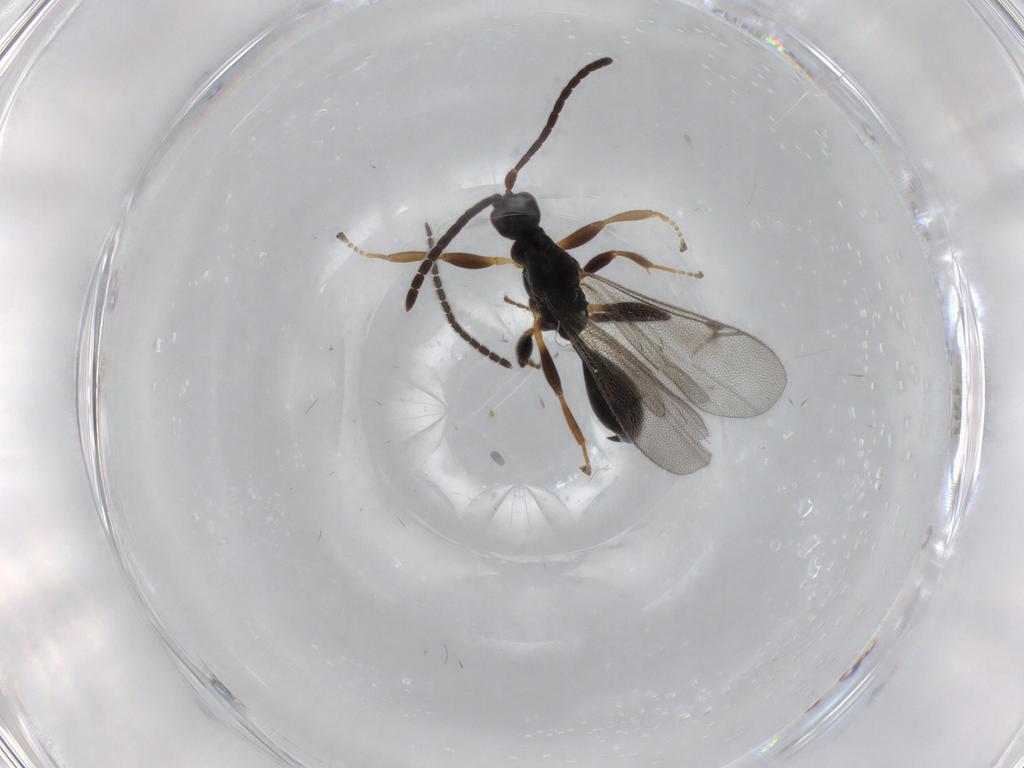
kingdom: Animalia
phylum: Arthropoda
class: Insecta
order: Hymenoptera
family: Proctotrupidae
